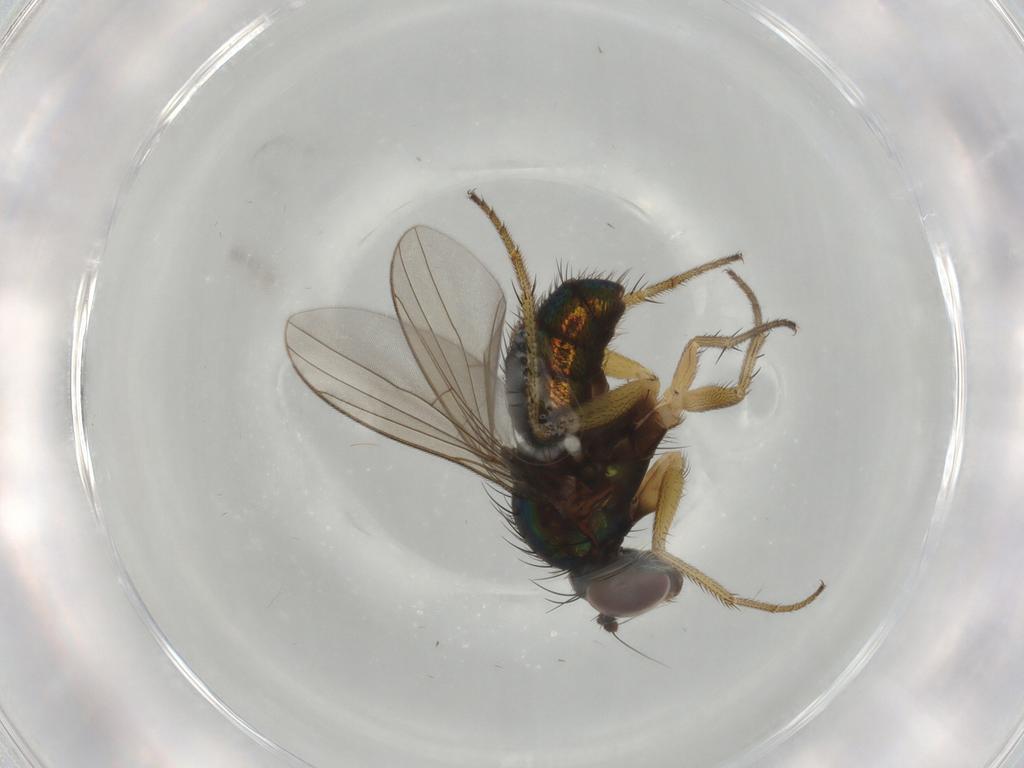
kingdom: Animalia
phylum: Arthropoda
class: Insecta
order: Diptera
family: Dolichopodidae
